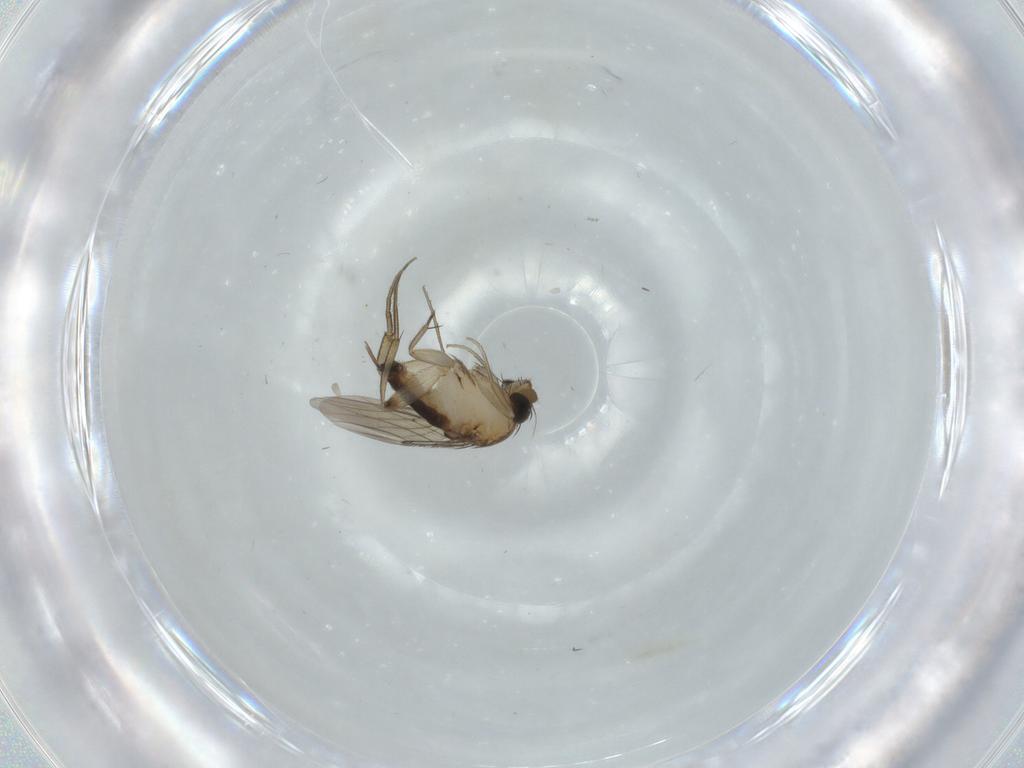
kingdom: Animalia
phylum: Arthropoda
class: Insecta
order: Diptera
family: Phoridae
